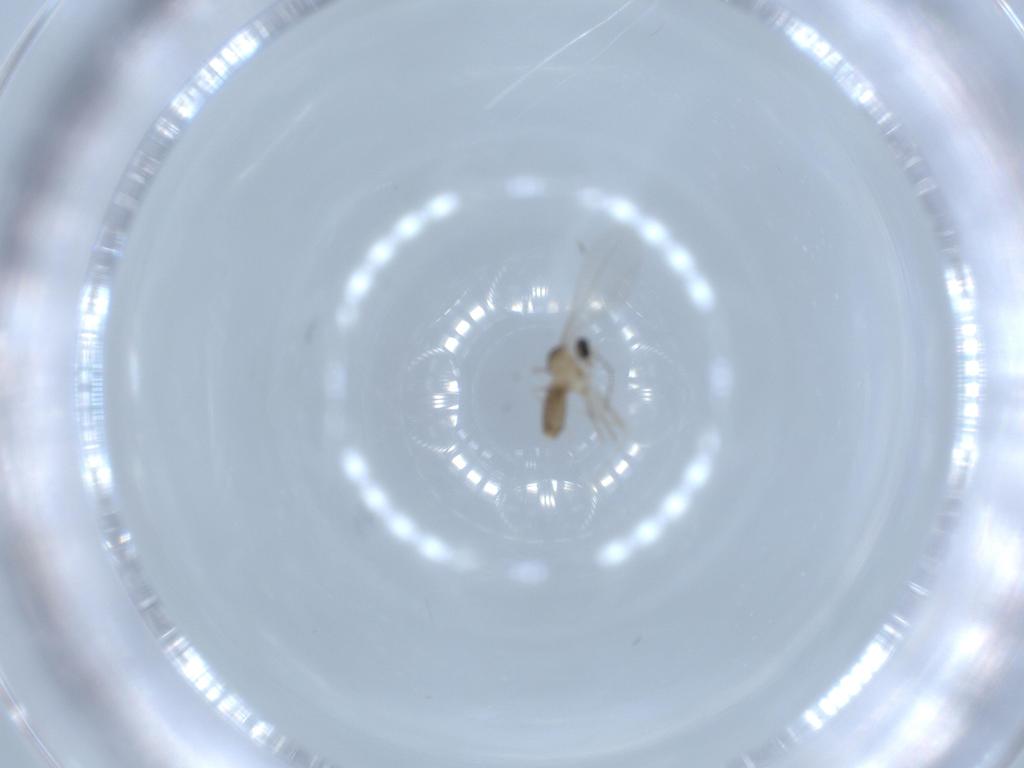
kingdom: Animalia
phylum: Arthropoda
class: Insecta
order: Diptera
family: Cecidomyiidae
